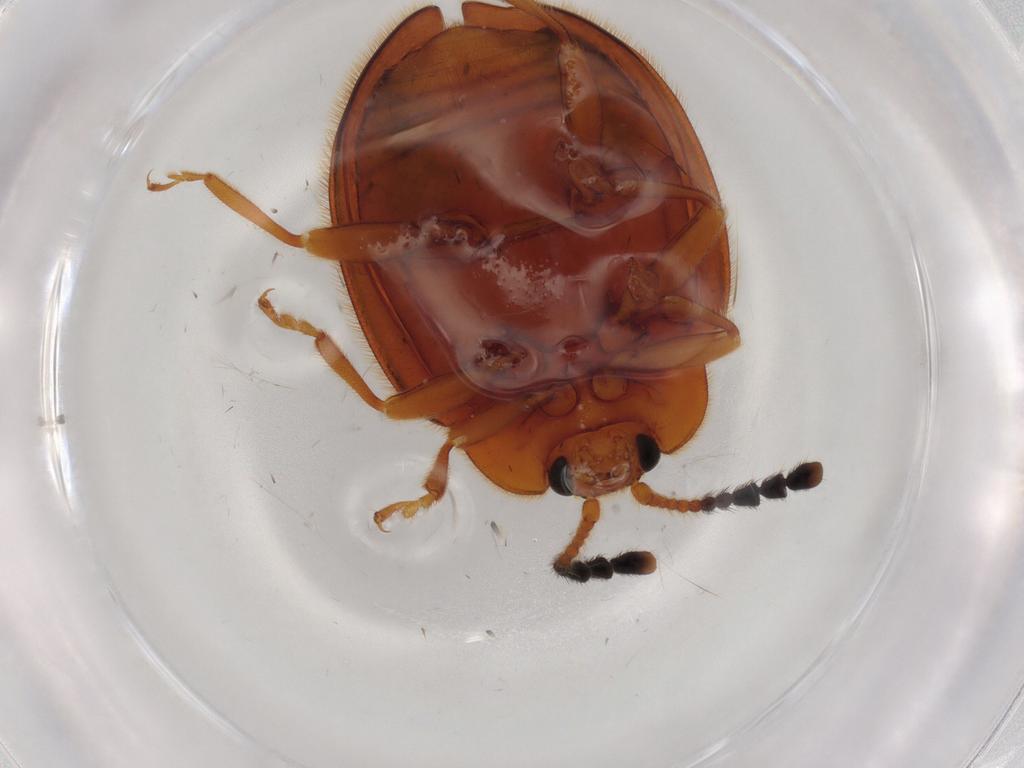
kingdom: Animalia
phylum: Arthropoda
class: Insecta
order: Coleoptera
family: Endomychidae
